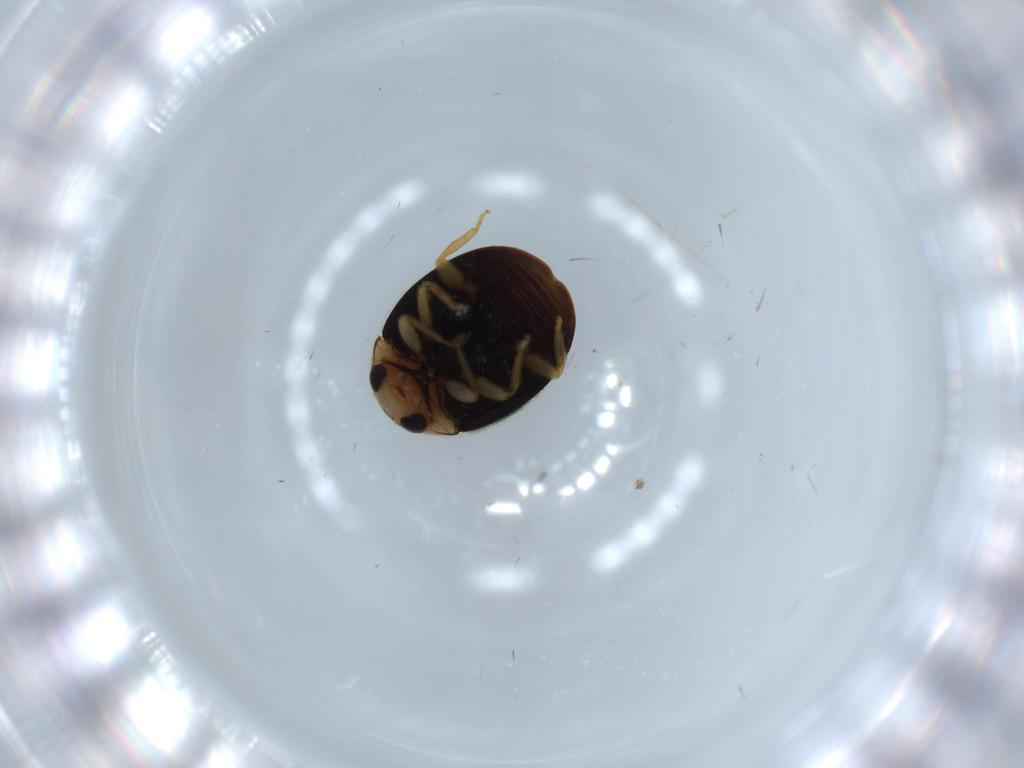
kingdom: Animalia
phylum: Arthropoda
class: Insecta
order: Coleoptera
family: Coccinellidae
